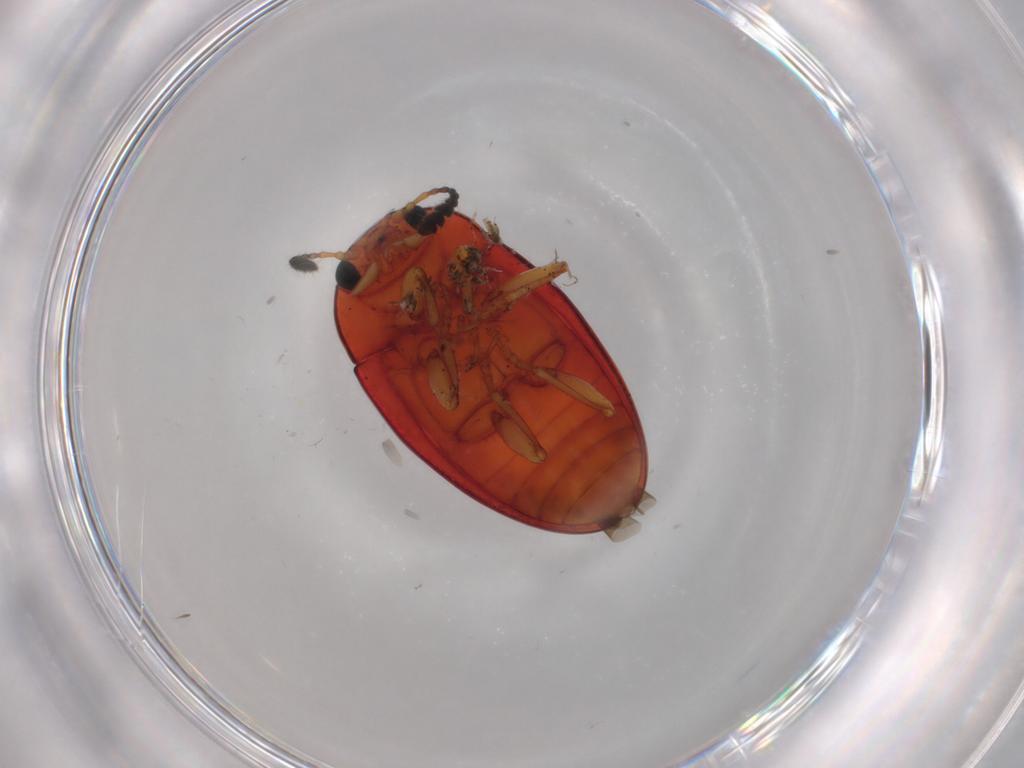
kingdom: Animalia
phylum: Arthropoda
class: Insecta
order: Coleoptera
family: Erotylidae
